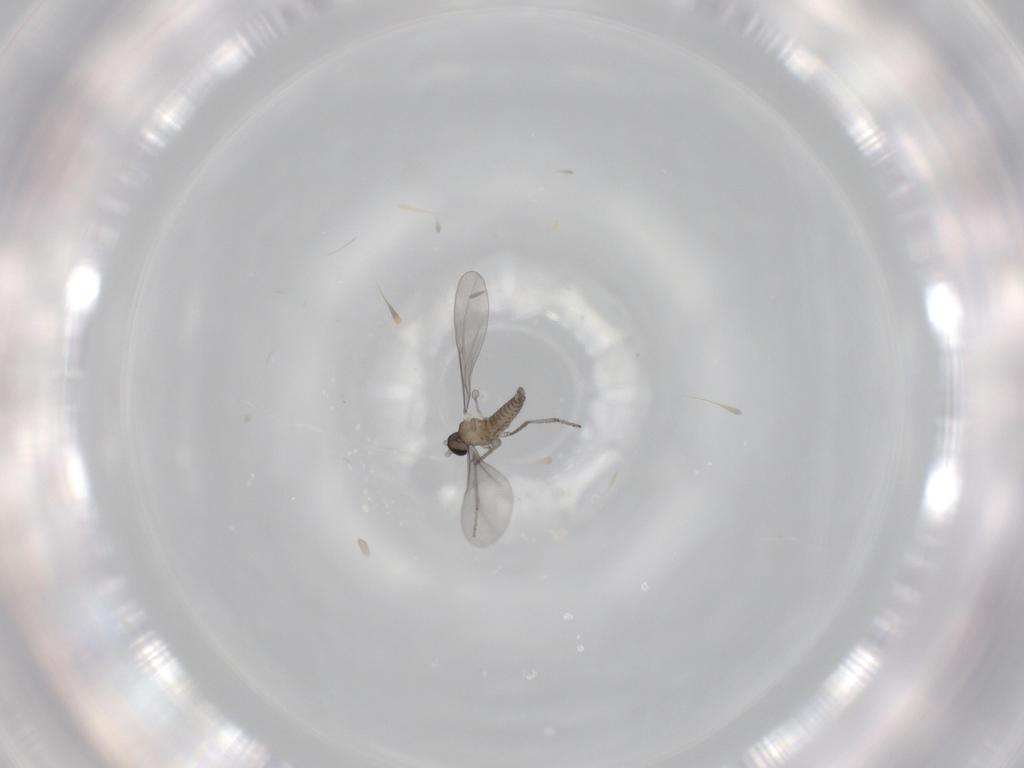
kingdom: Animalia
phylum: Arthropoda
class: Insecta
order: Diptera
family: Cecidomyiidae
